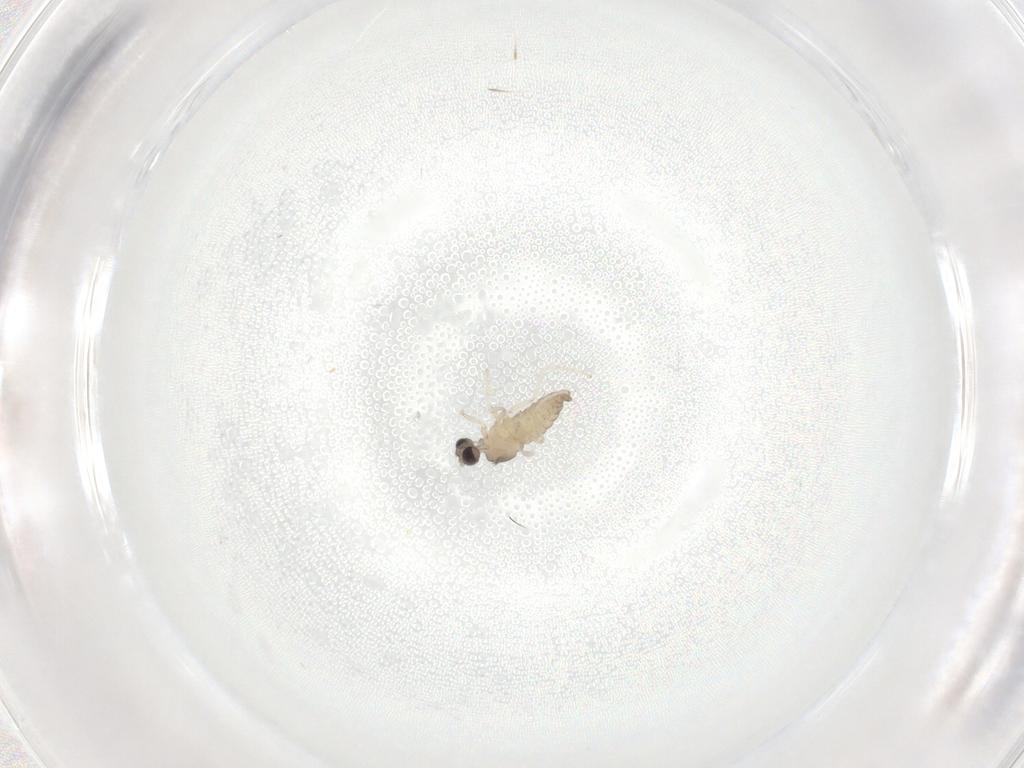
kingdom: Animalia
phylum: Arthropoda
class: Insecta
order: Diptera
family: Cecidomyiidae
